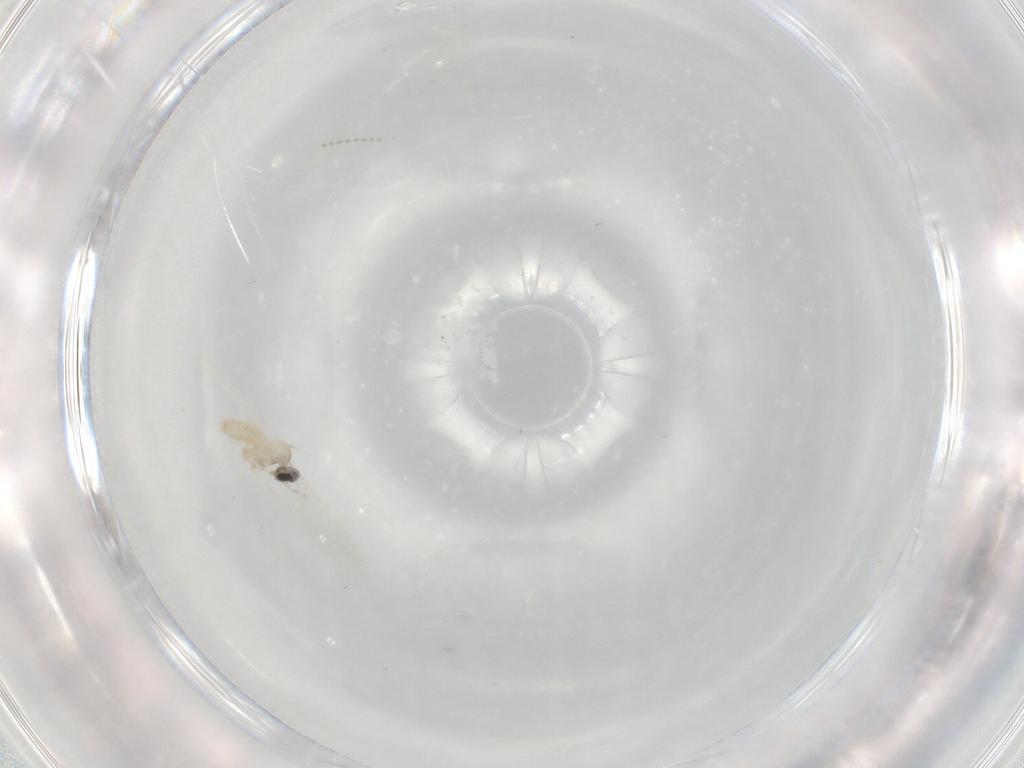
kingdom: Animalia
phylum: Arthropoda
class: Insecta
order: Diptera
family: Cecidomyiidae
